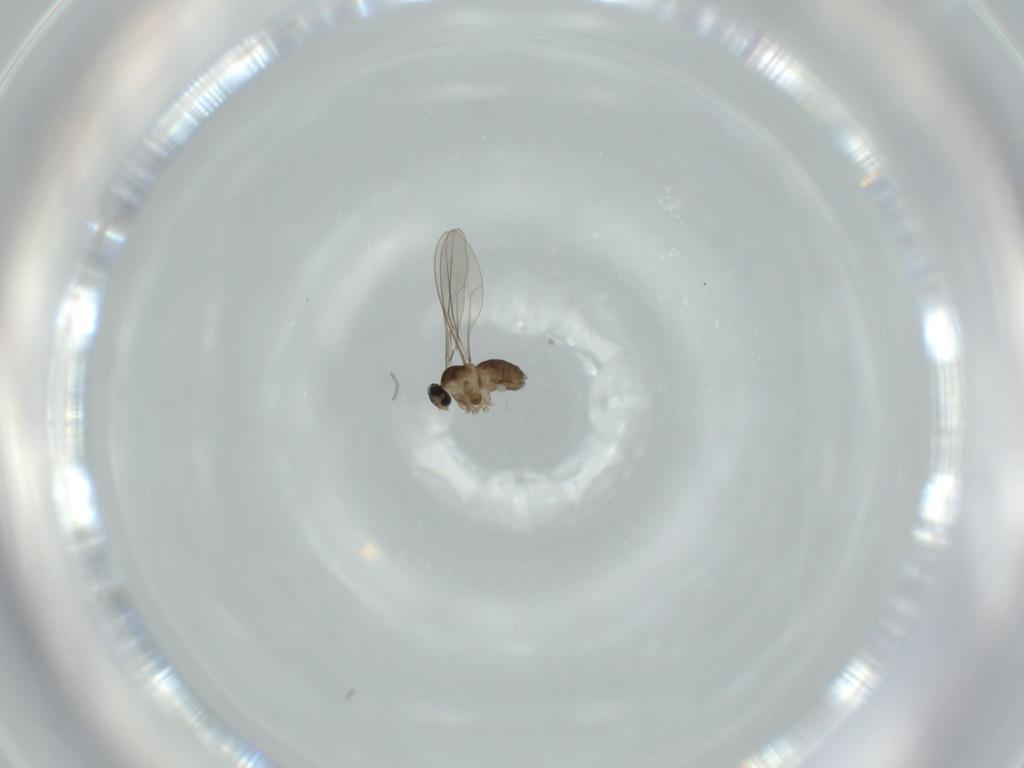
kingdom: Animalia
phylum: Arthropoda
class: Insecta
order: Diptera
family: Cecidomyiidae
